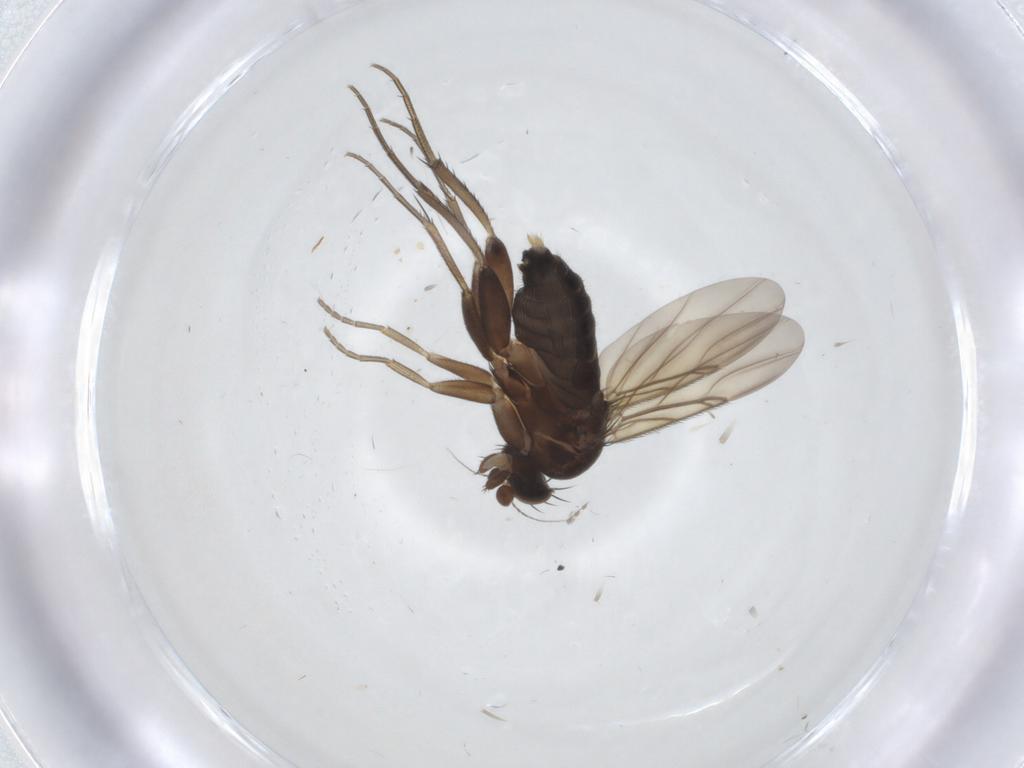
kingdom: Animalia
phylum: Arthropoda
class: Insecta
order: Diptera
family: Phoridae
